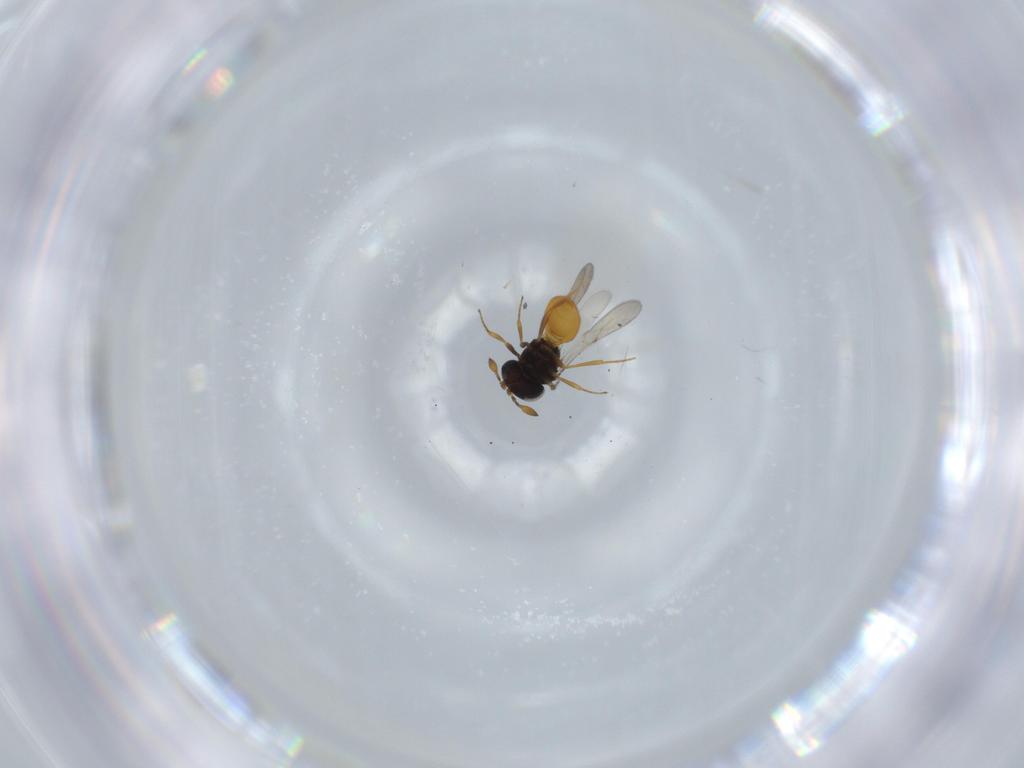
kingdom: Animalia
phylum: Arthropoda
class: Insecta
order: Hymenoptera
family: Scelionidae
